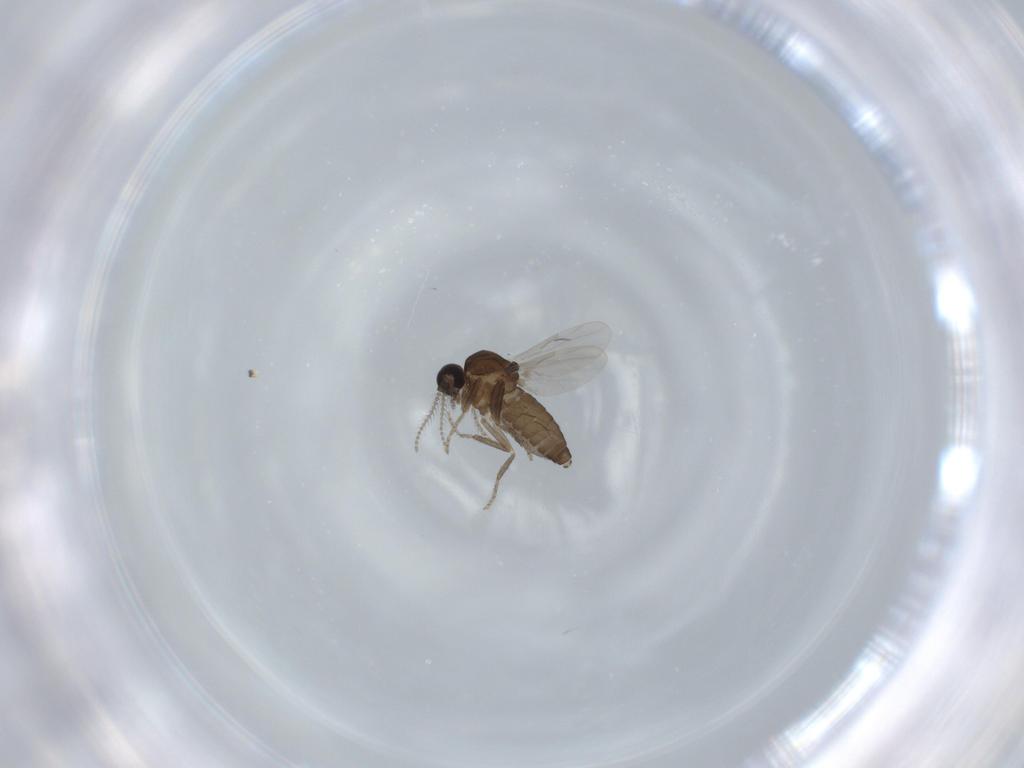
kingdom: Animalia
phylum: Arthropoda
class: Insecta
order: Diptera
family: Ceratopogonidae
